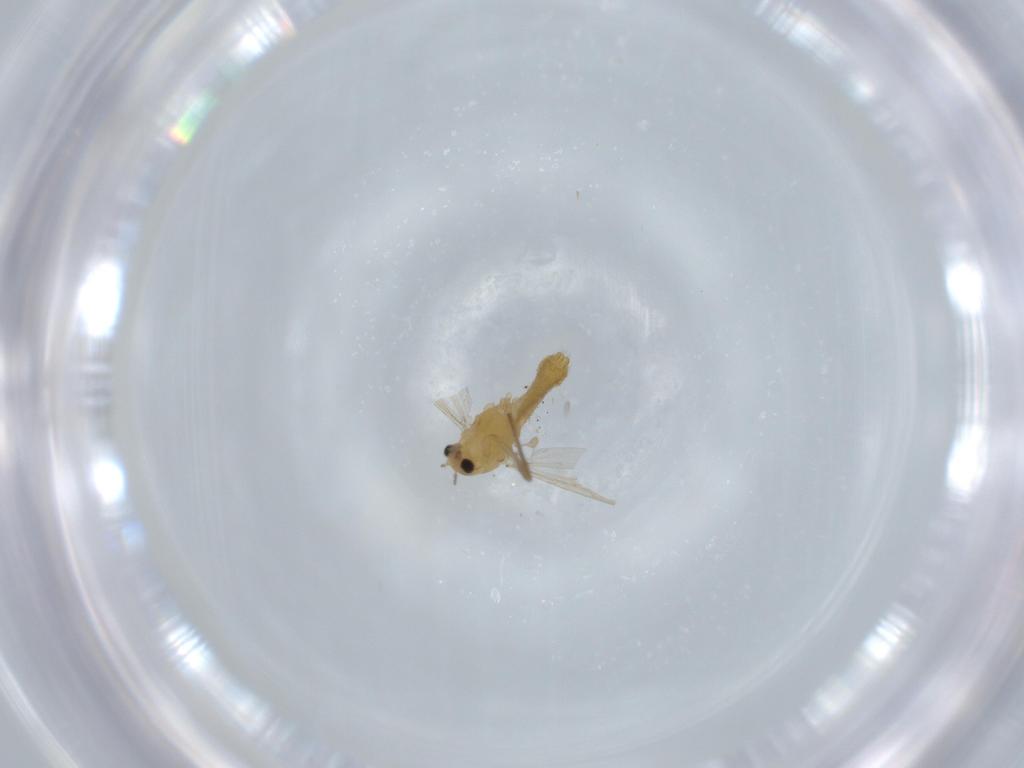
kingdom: Animalia
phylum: Arthropoda
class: Insecta
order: Diptera
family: Chironomidae
